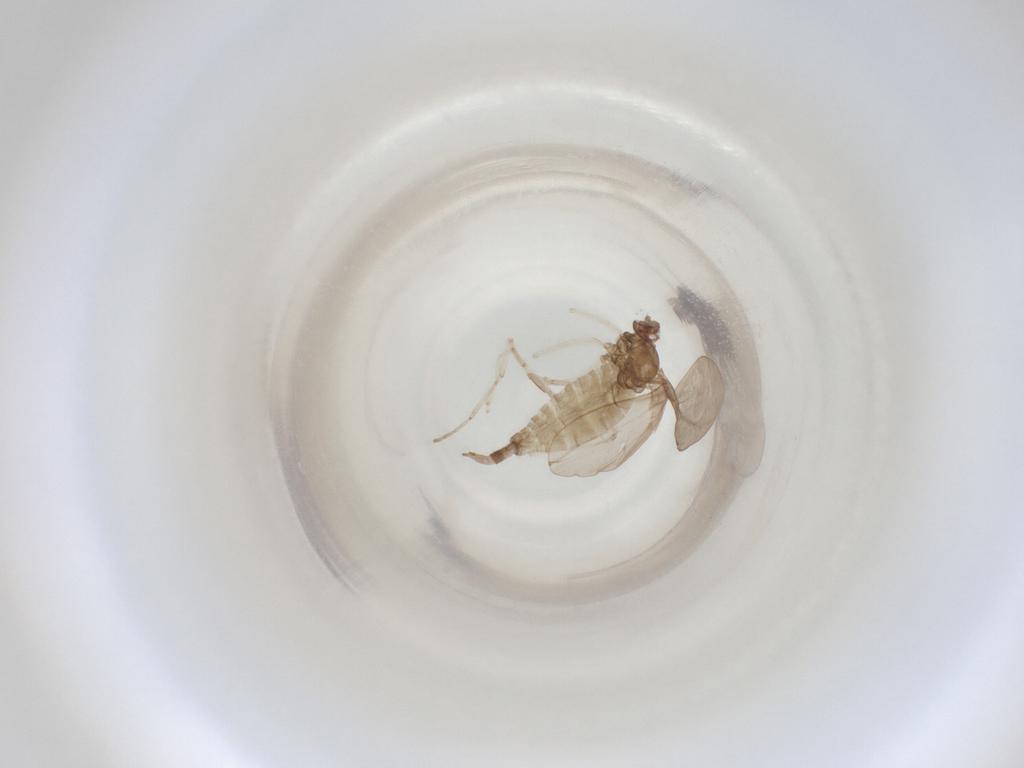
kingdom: Animalia
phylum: Arthropoda
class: Insecta
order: Diptera
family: Cecidomyiidae
